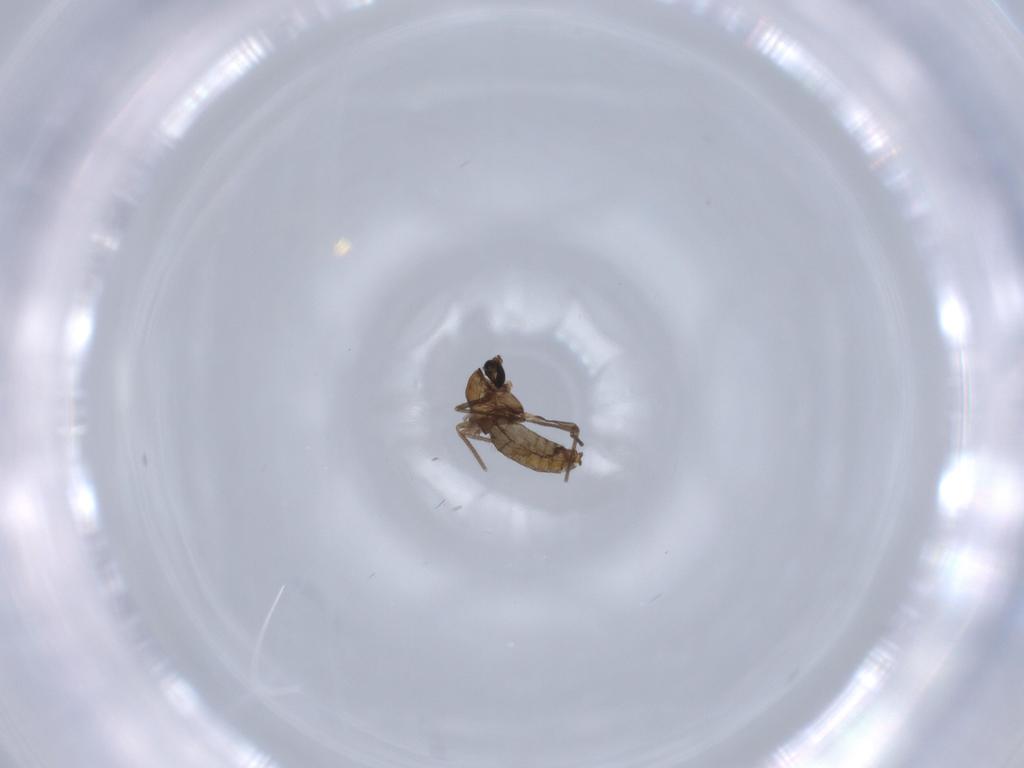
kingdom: Animalia
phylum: Arthropoda
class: Insecta
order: Diptera
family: Chironomidae
